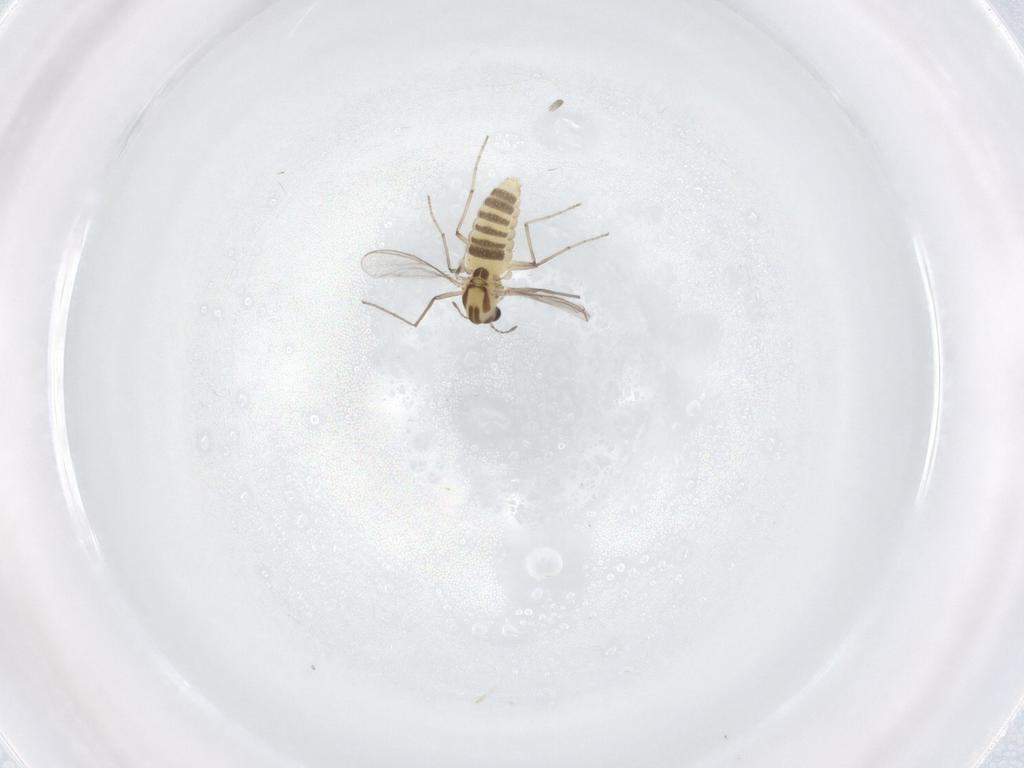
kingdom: Animalia
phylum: Arthropoda
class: Insecta
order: Diptera
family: Chironomidae
